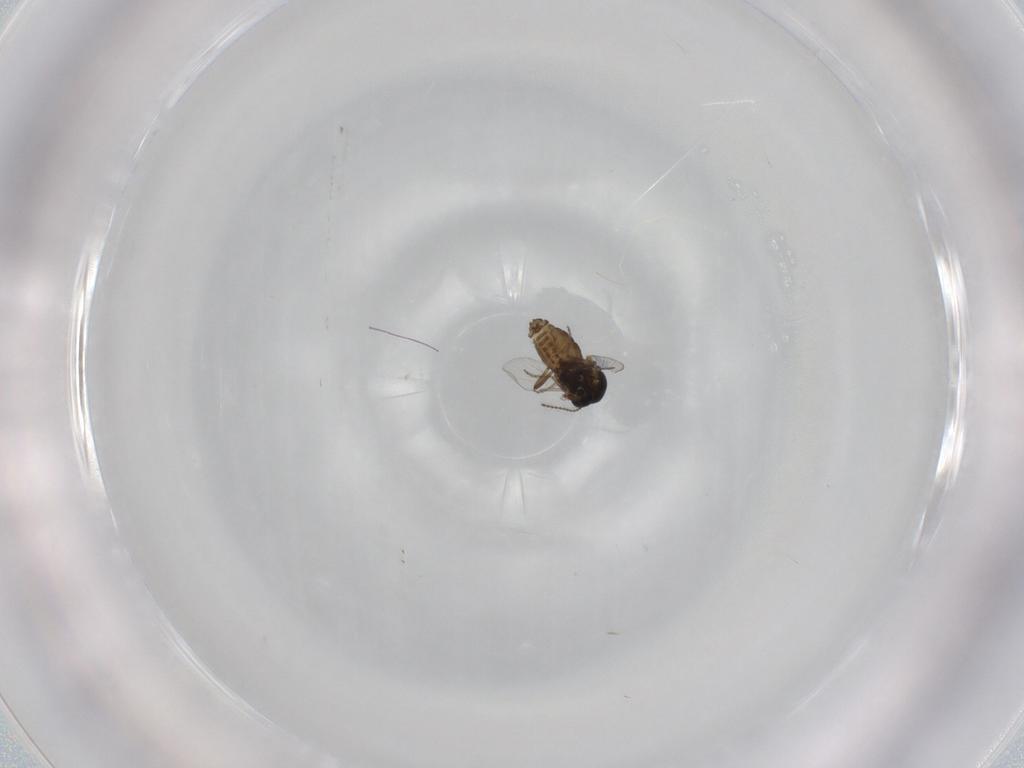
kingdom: Animalia
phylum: Arthropoda
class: Insecta
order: Diptera
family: Ceratopogonidae
